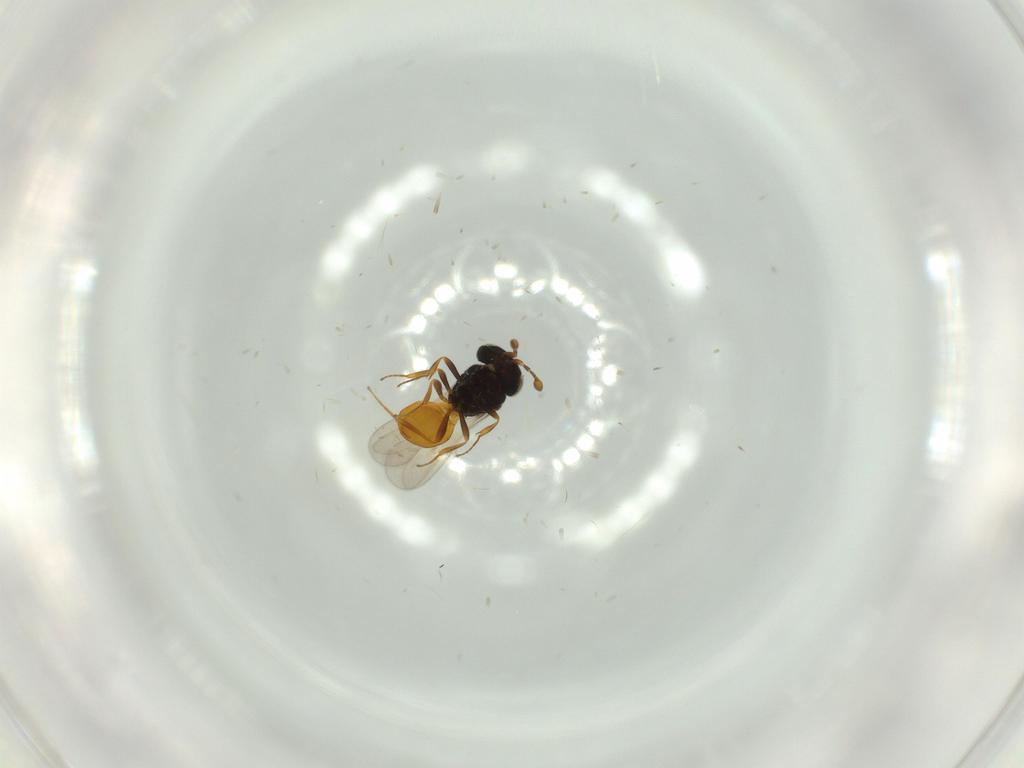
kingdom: Animalia
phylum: Arthropoda
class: Insecta
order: Hymenoptera
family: Scelionidae
